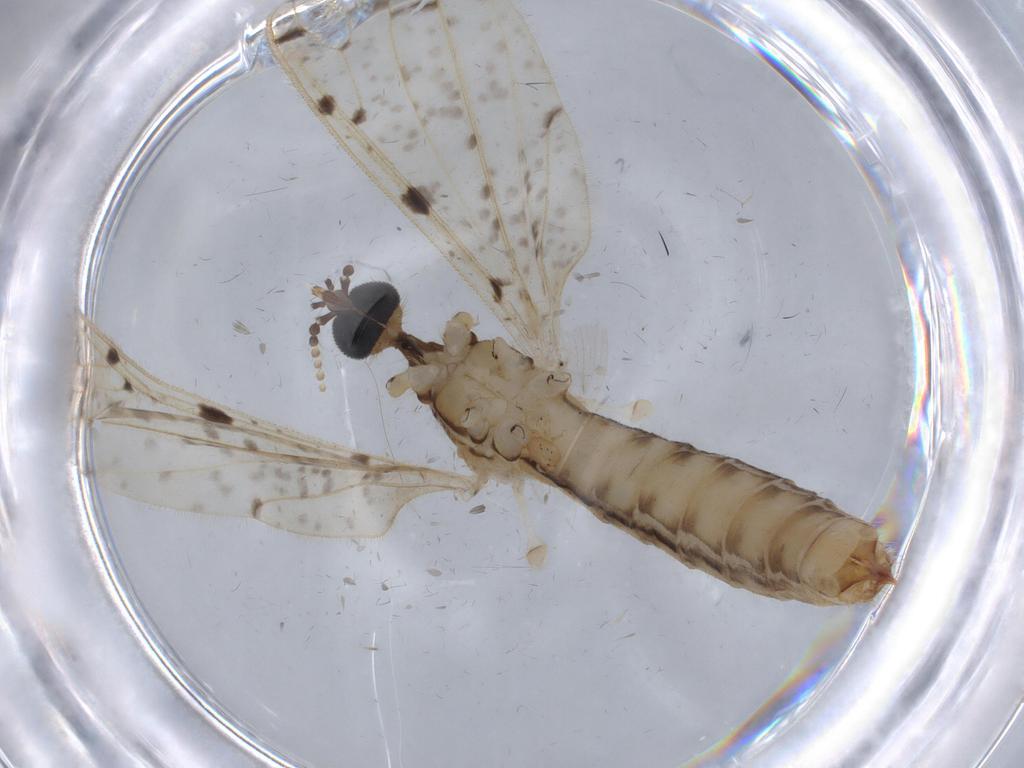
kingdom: Animalia
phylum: Arthropoda
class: Insecta
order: Diptera
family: Psychodidae
